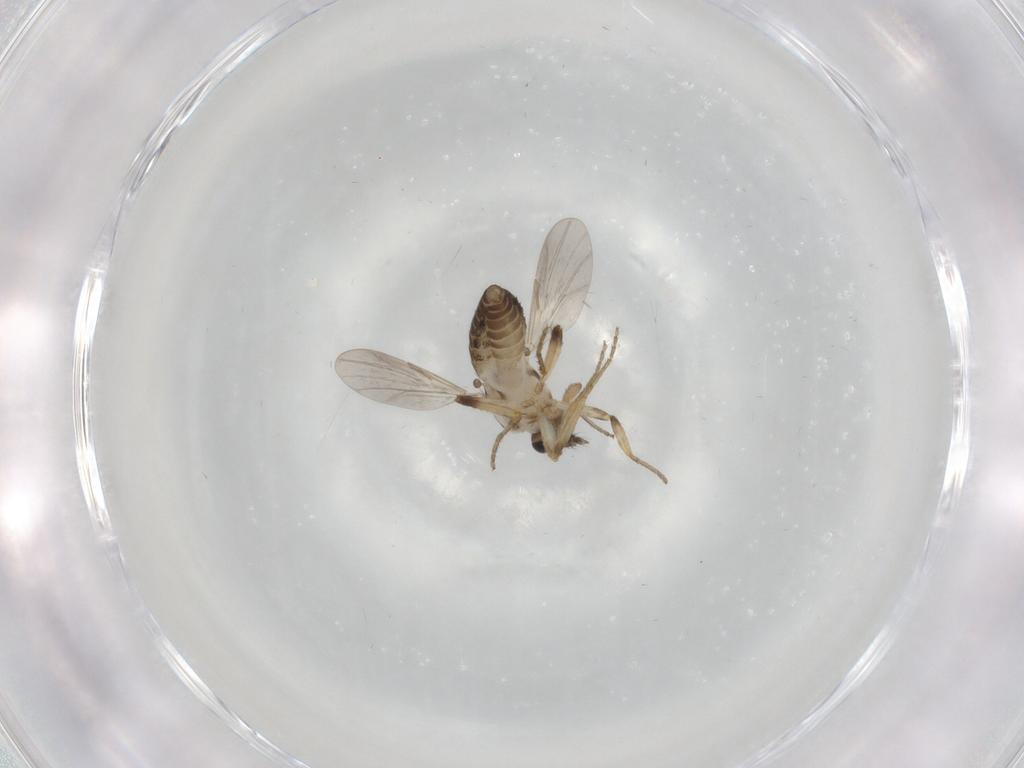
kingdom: Animalia
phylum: Arthropoda
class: Insecta
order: Diptera
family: Ceratopogonidae
